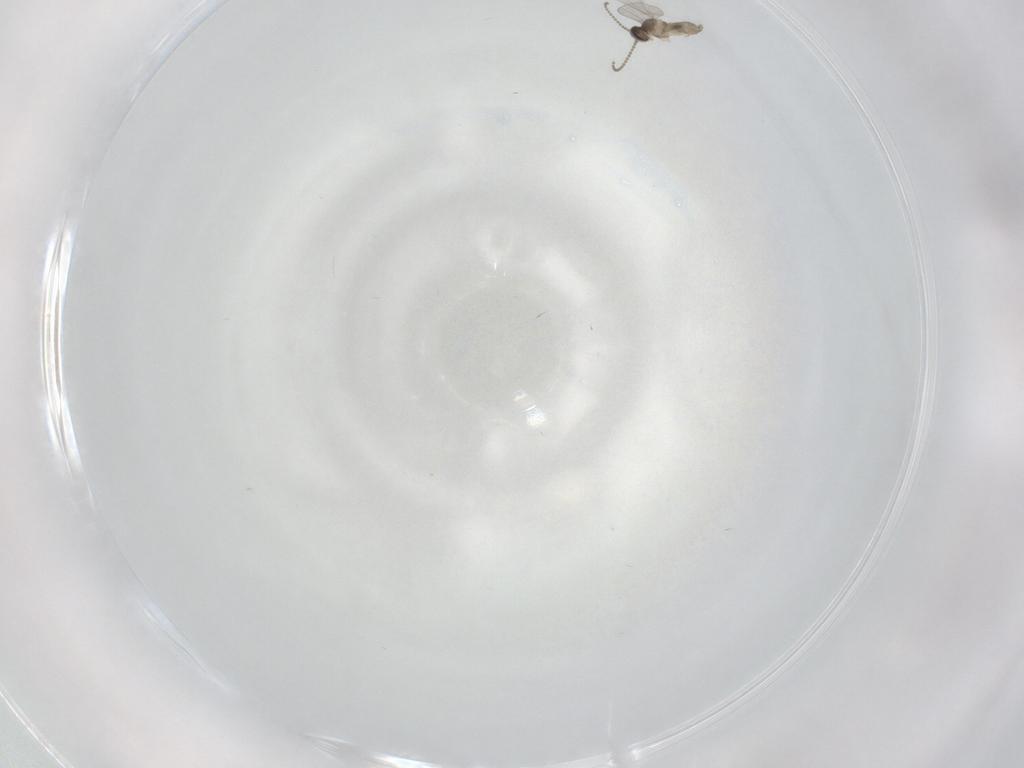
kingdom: Animalia
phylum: Arthropoda
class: Insecta
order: Diptera
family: Cecidomyiidae
